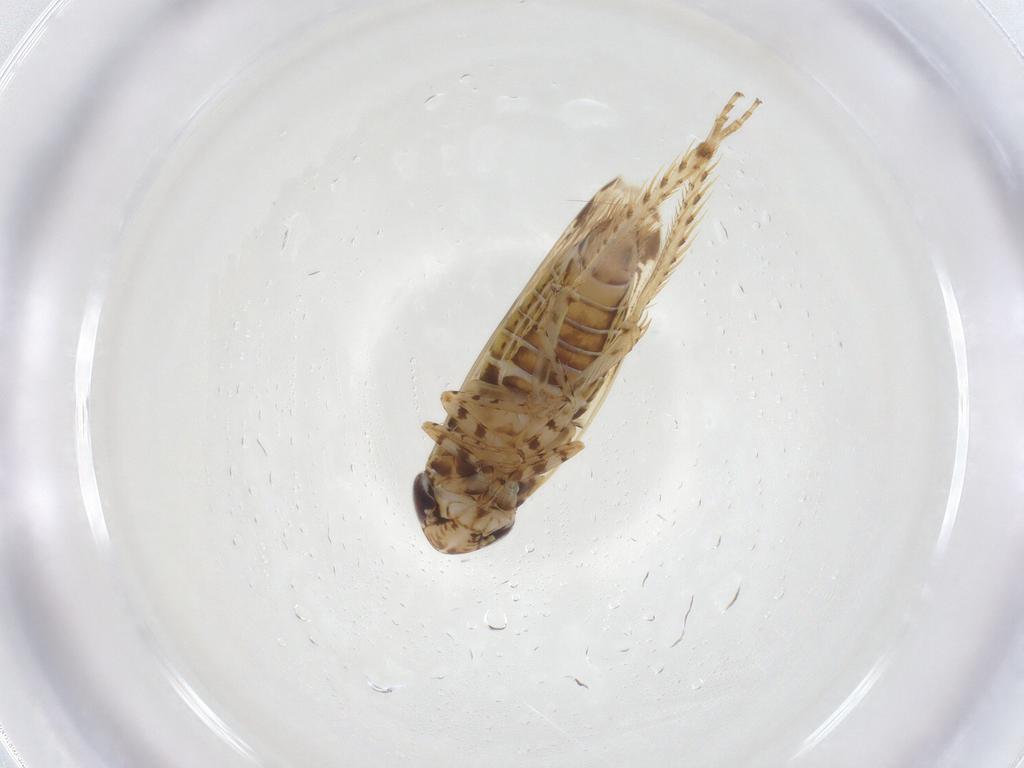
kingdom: Animalia
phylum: Arthropoda
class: Insecta
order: Hemiptera
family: Cicadellidae
